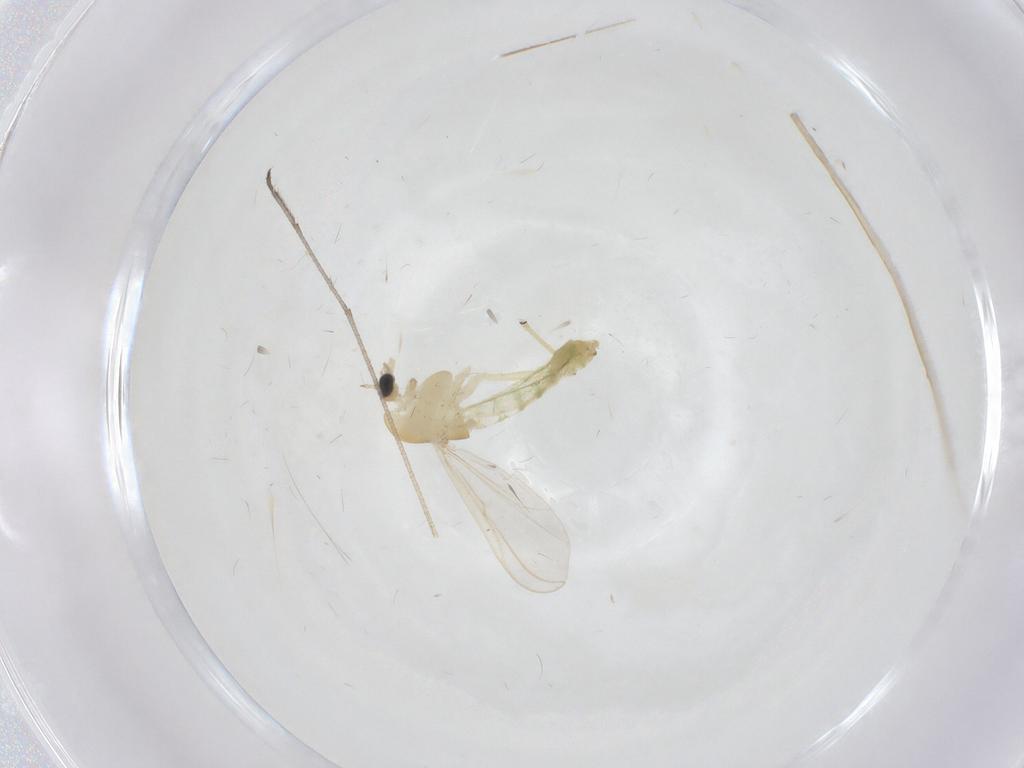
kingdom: Animalia
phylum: Arthropoda
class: Insecta
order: Diptera
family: Chironomidae
